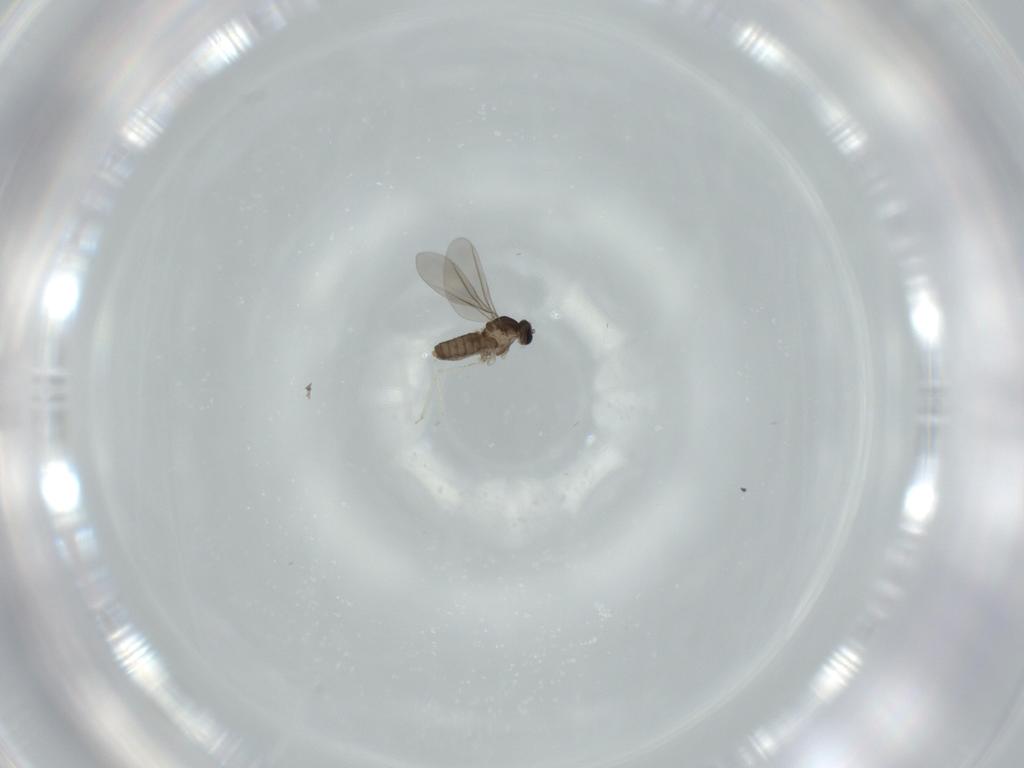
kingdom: Animalia
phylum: Arthropoda
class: Insecta
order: Diptera
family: Cecidomyiidae
